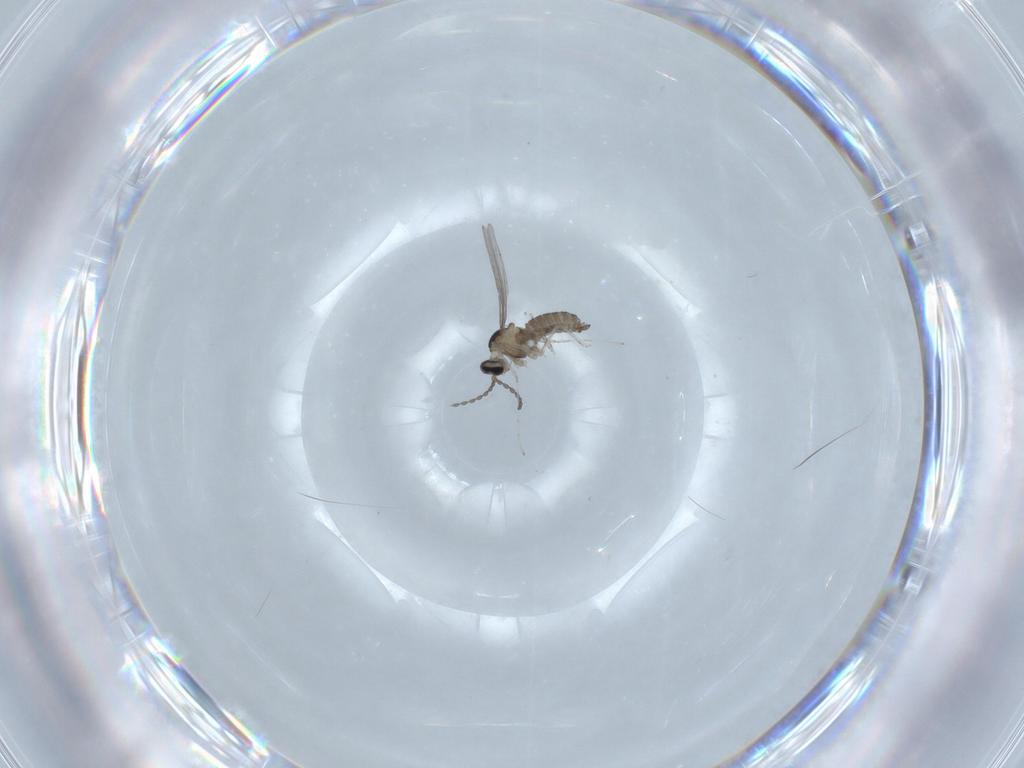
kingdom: Animalia
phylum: Arthropoda
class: Insecta
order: Diptera
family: Cecidomyiidae
